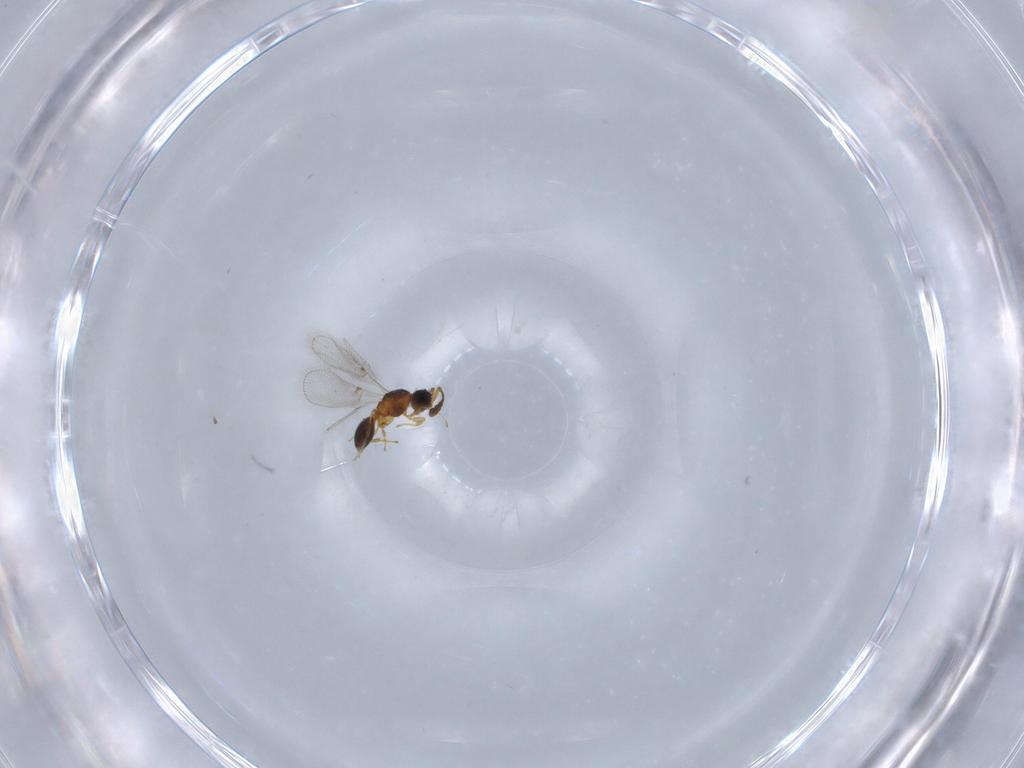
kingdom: Animalia
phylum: Arthropoda
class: Insecta
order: Hymenoptera
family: Diapriidae
